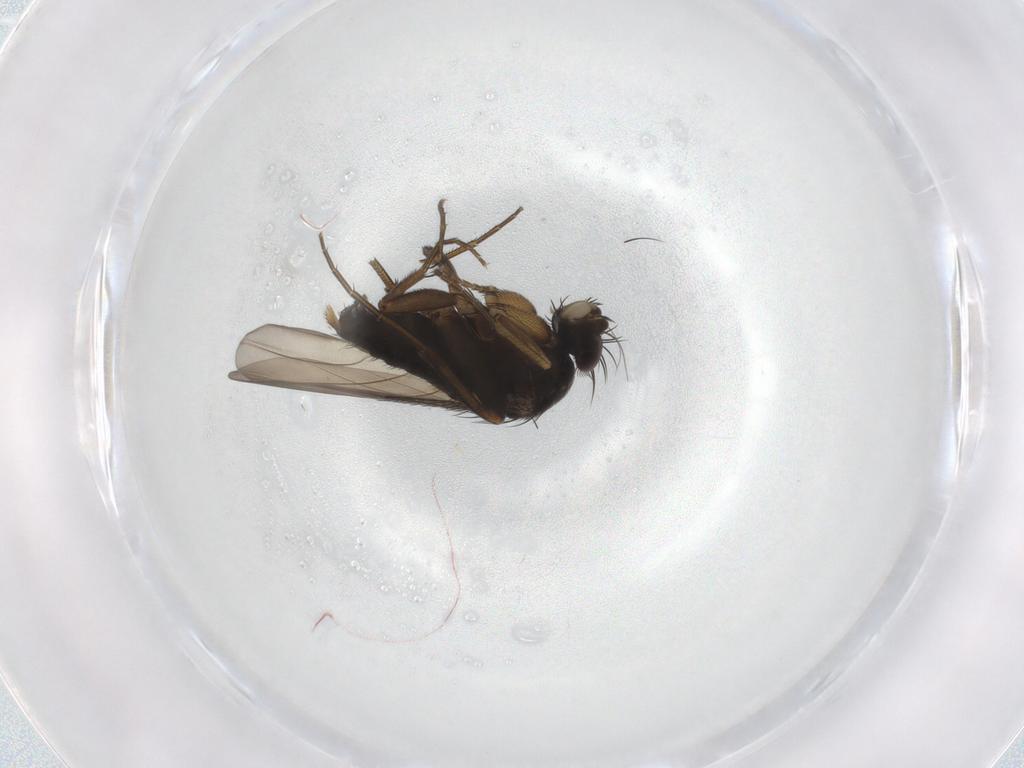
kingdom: Animalia
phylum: Arthropoda
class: Insecta
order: Diptera
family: Phoridae
